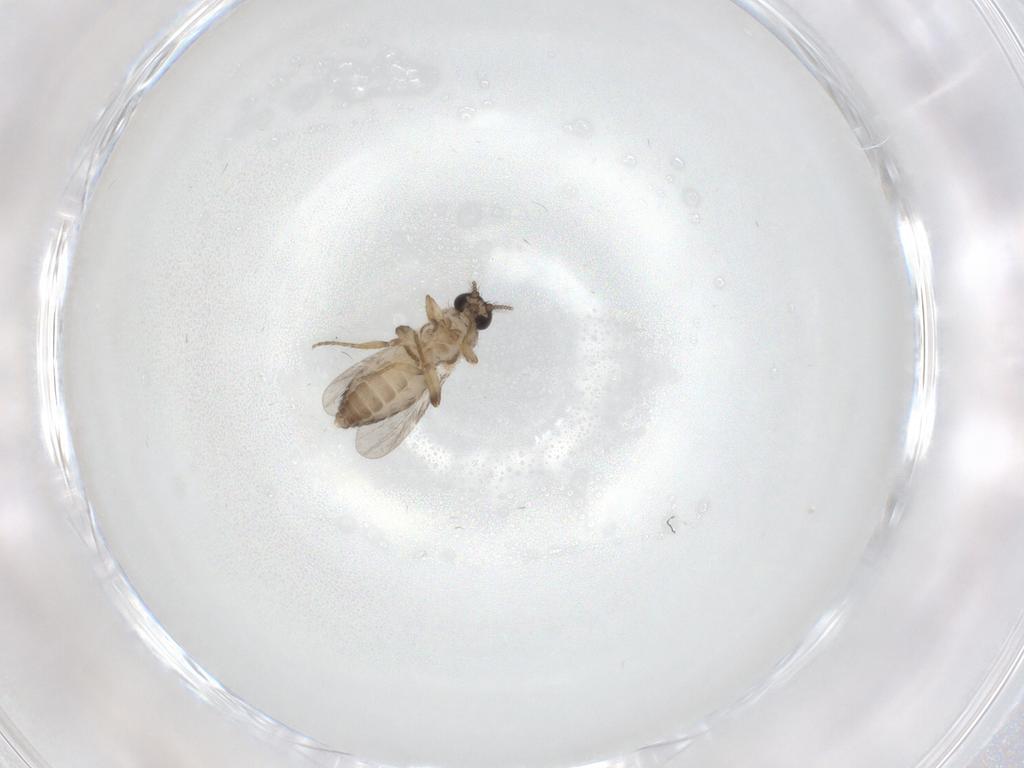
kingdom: Animalia
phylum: Arthropoda
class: Insecta
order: Diptera
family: Ceratopogonidae
